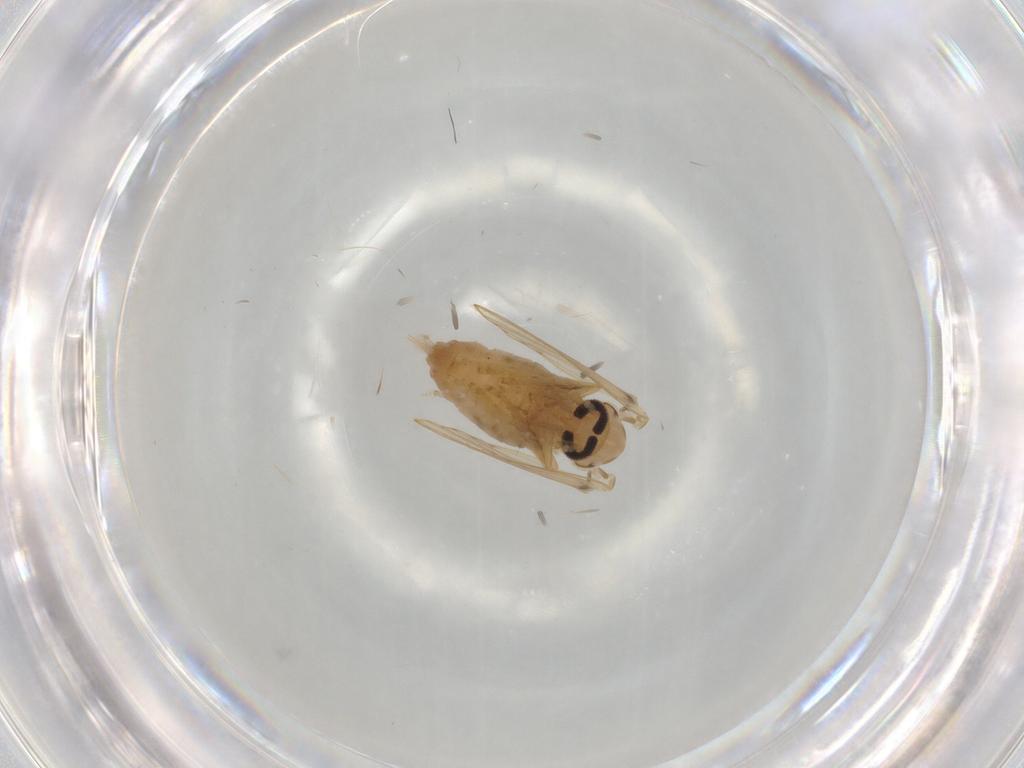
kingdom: Animalia
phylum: Arthropoda
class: Insecta
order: Diptera
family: Psychodidae
